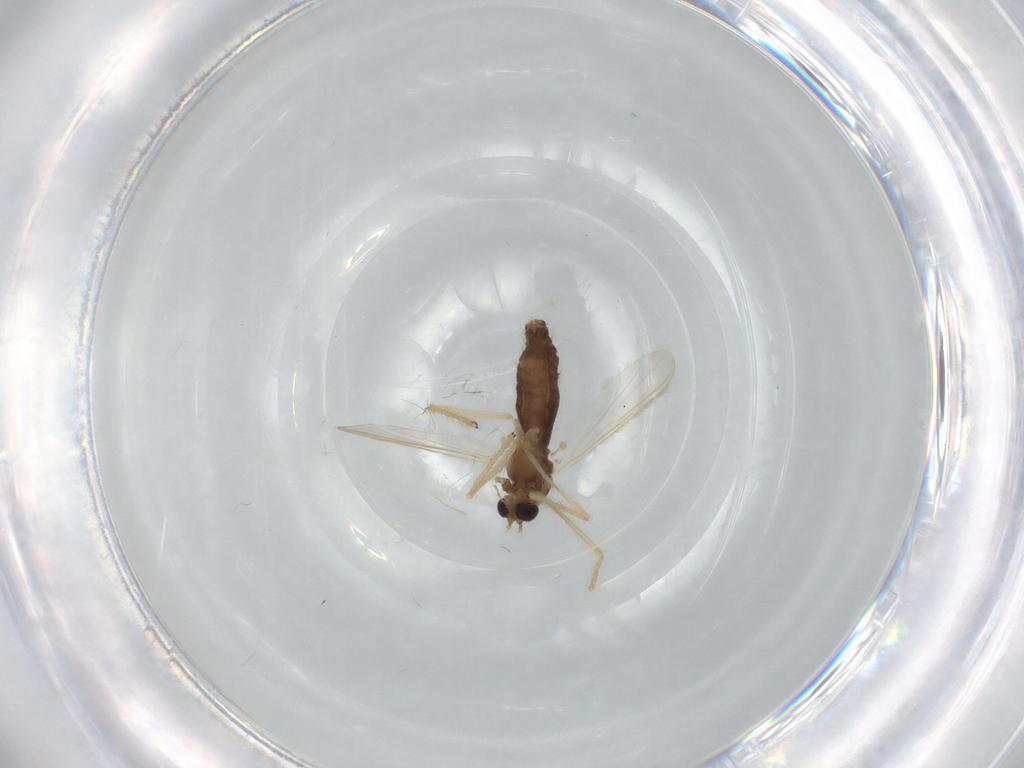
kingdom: Animalia
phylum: Arthropoda
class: Insecta
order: Diptera
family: Chironomidae
